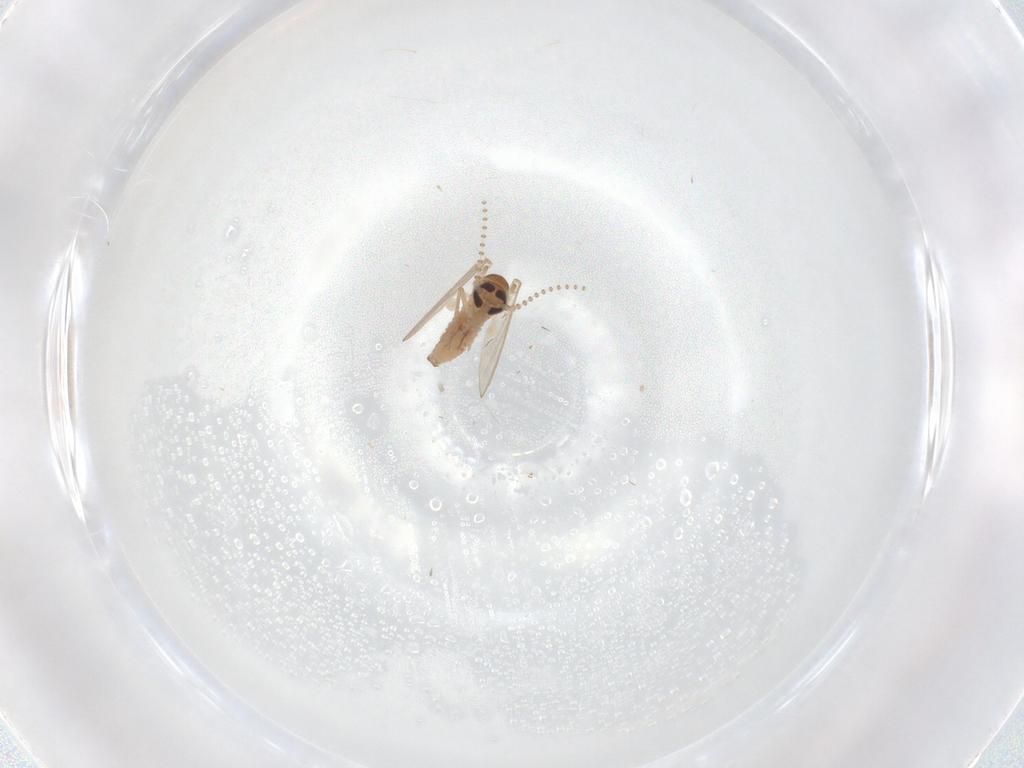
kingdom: Animalia
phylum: Arthropoda
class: Insecta
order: Diptera
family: Psychodidae
